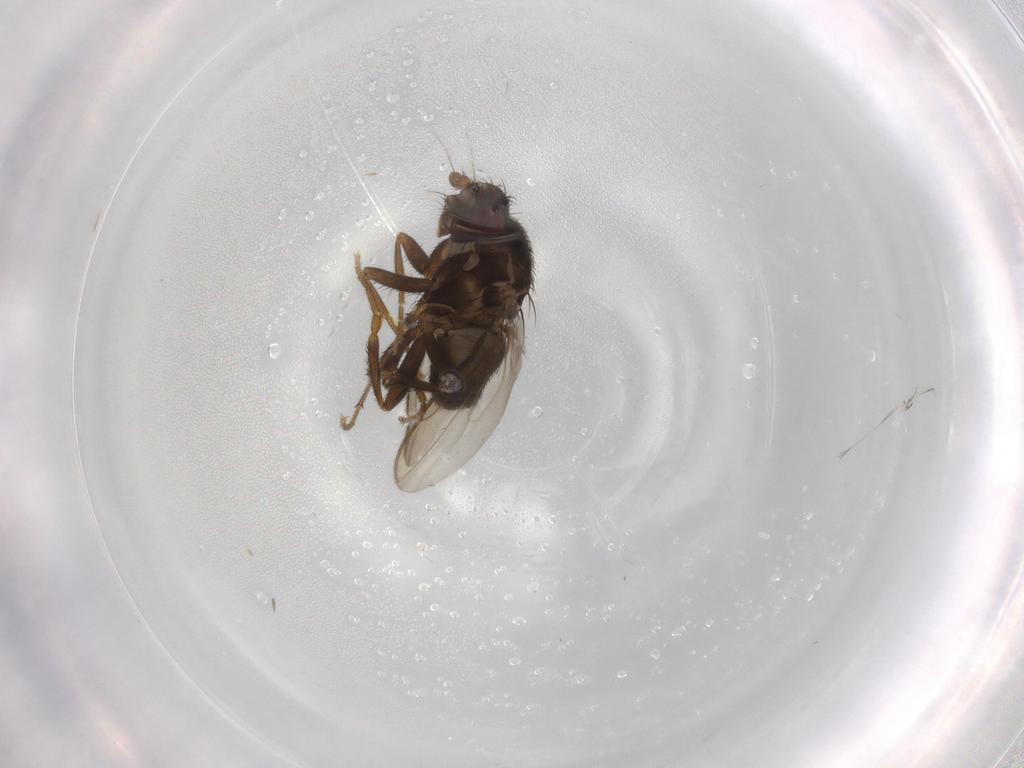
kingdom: Animalia
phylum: Arthropoda
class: Insecta
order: Diptera
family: Sphaeroceridae
